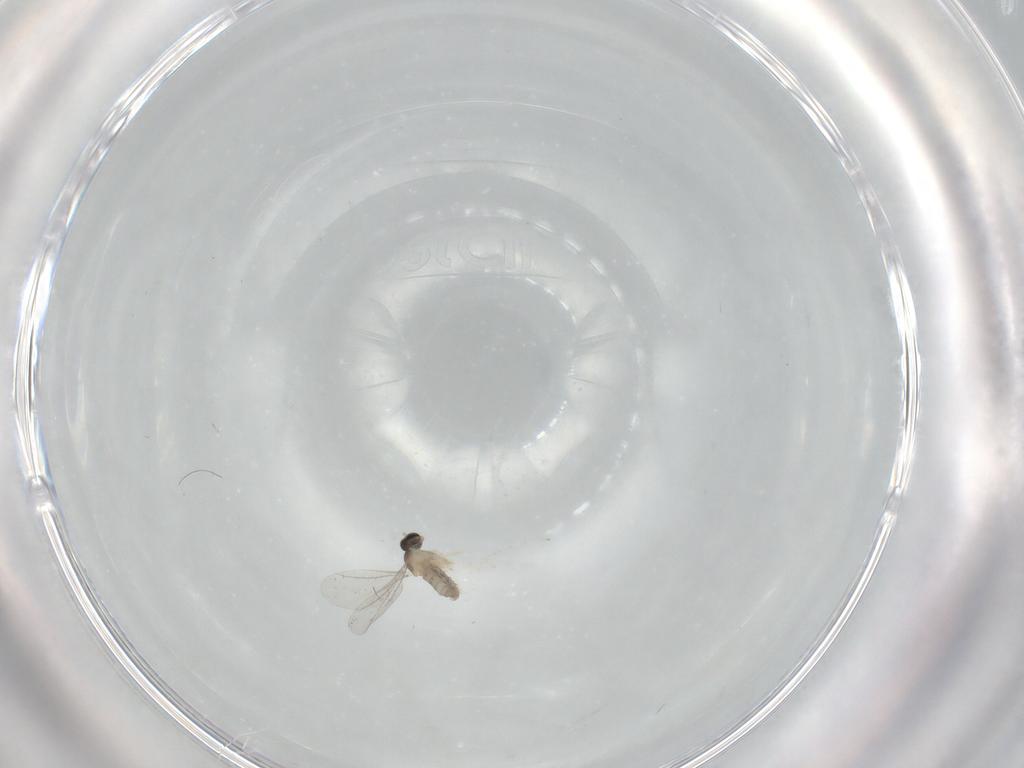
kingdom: Animalia
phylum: Arthropoda
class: Insecta
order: Diptera
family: Cecidomyiidae
